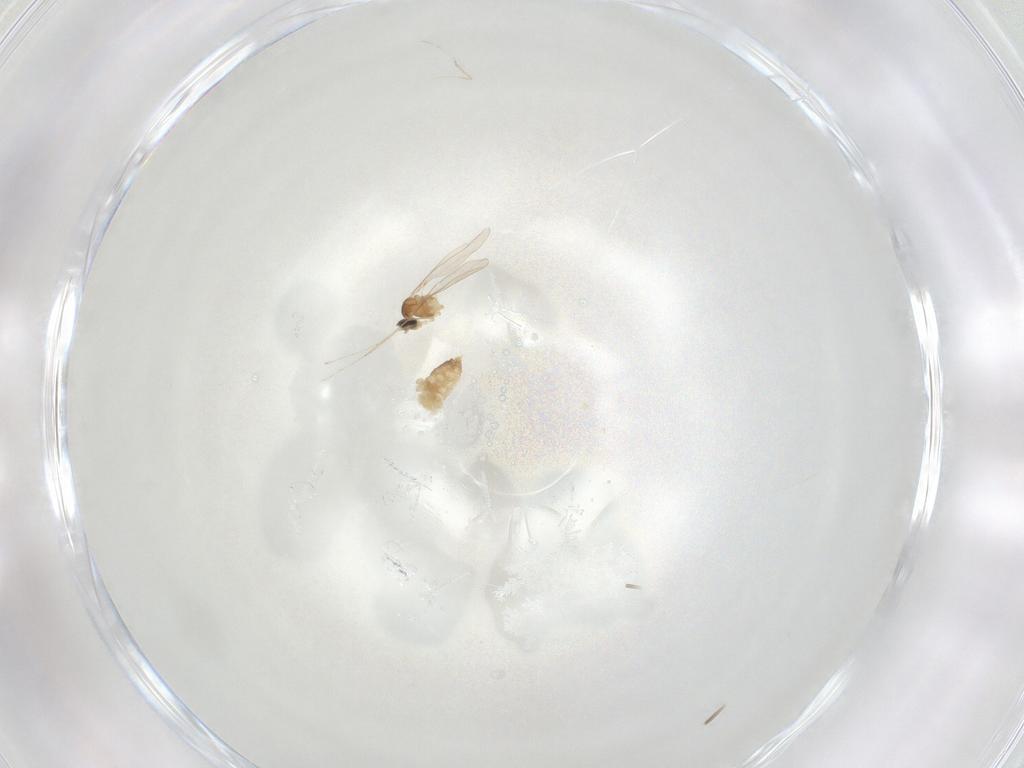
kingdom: Animalia
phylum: Arthropoda
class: Insecta
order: Diptera
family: Cecidomyiidae
